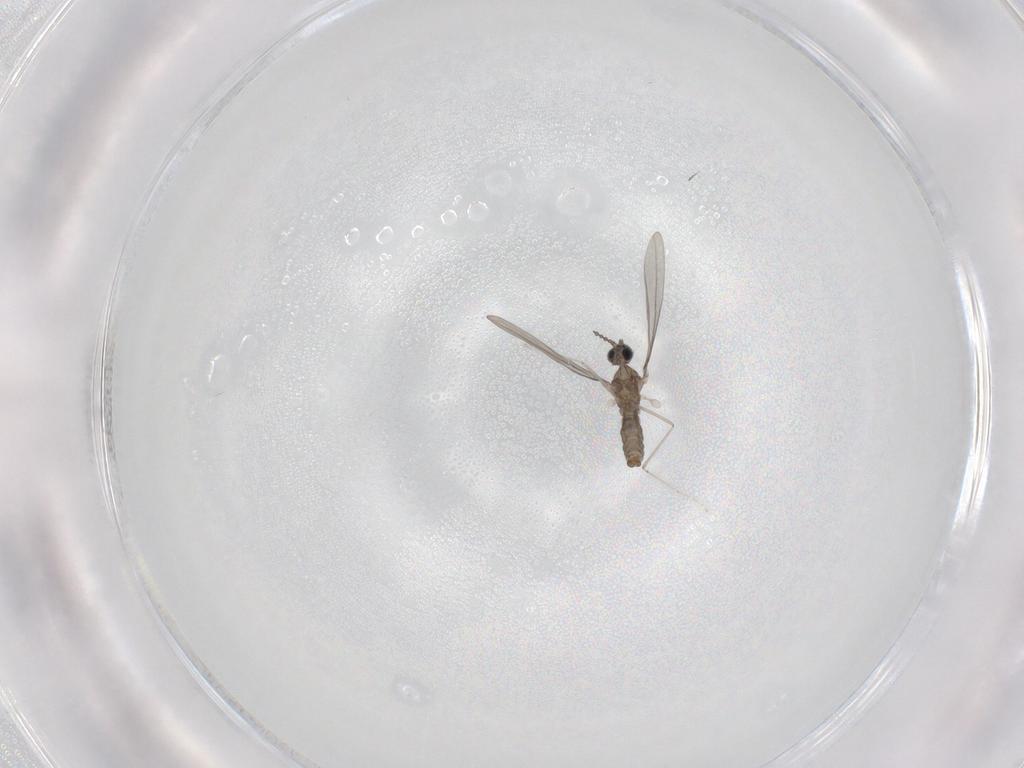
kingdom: Animalia
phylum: Arthropoda
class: Insecta
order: Diptera
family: Cecidomyiidae
